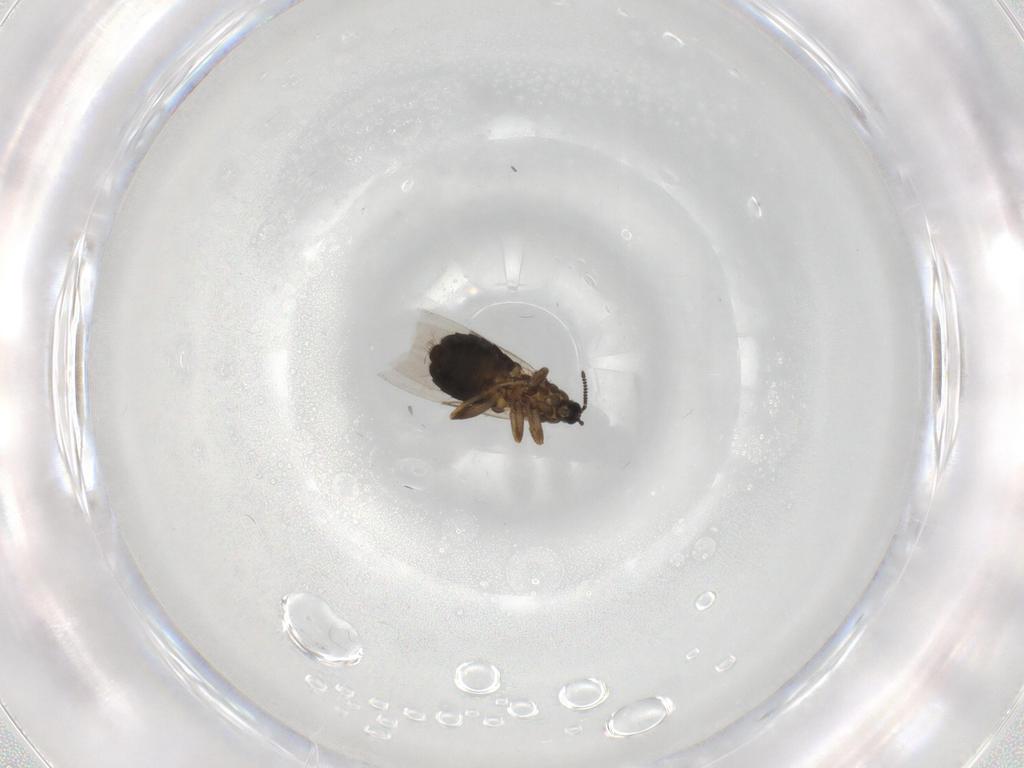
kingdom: Animalia
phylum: Arthropoda
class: Insecta
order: Diptera
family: Scatopsidae
